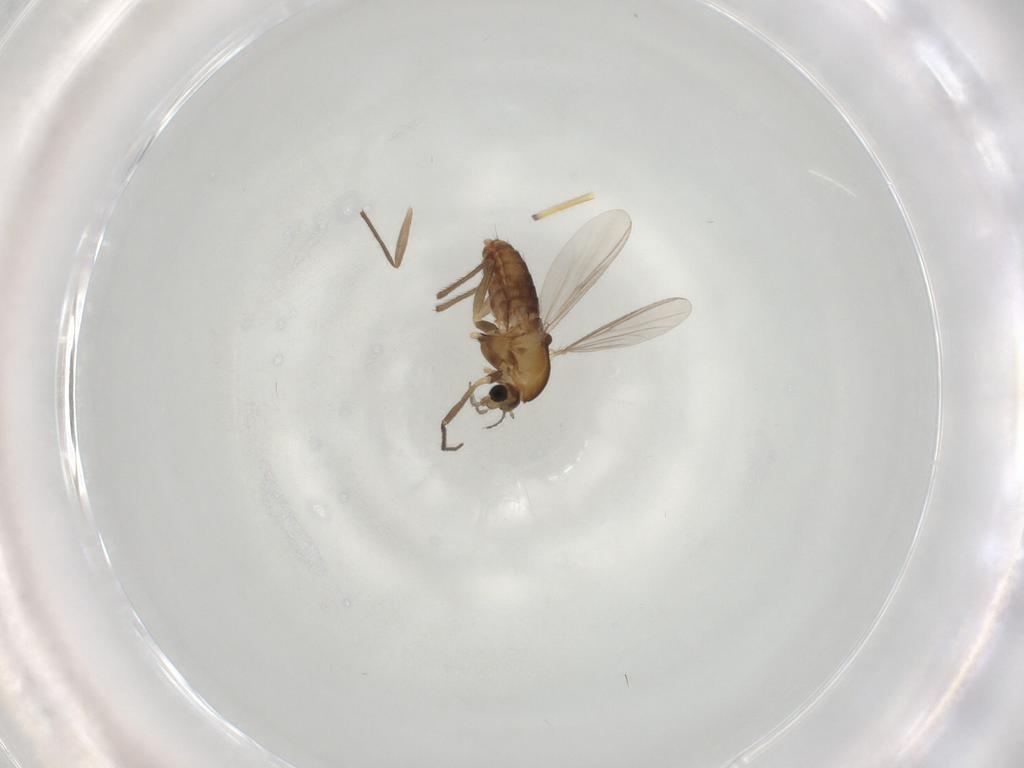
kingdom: Animalia
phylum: Arthropoda
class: Insecta
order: Diptera
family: Chironomidae
